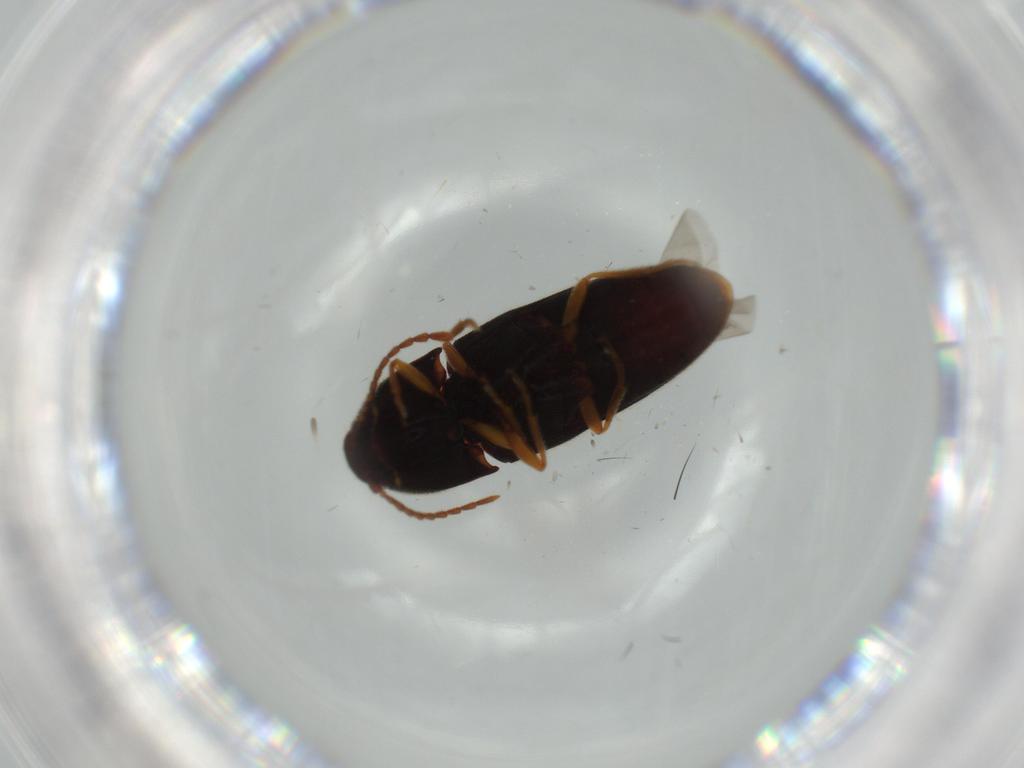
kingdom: Animalia
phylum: Arthropoda
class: Insecta
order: Coleoptera
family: Elateridae
